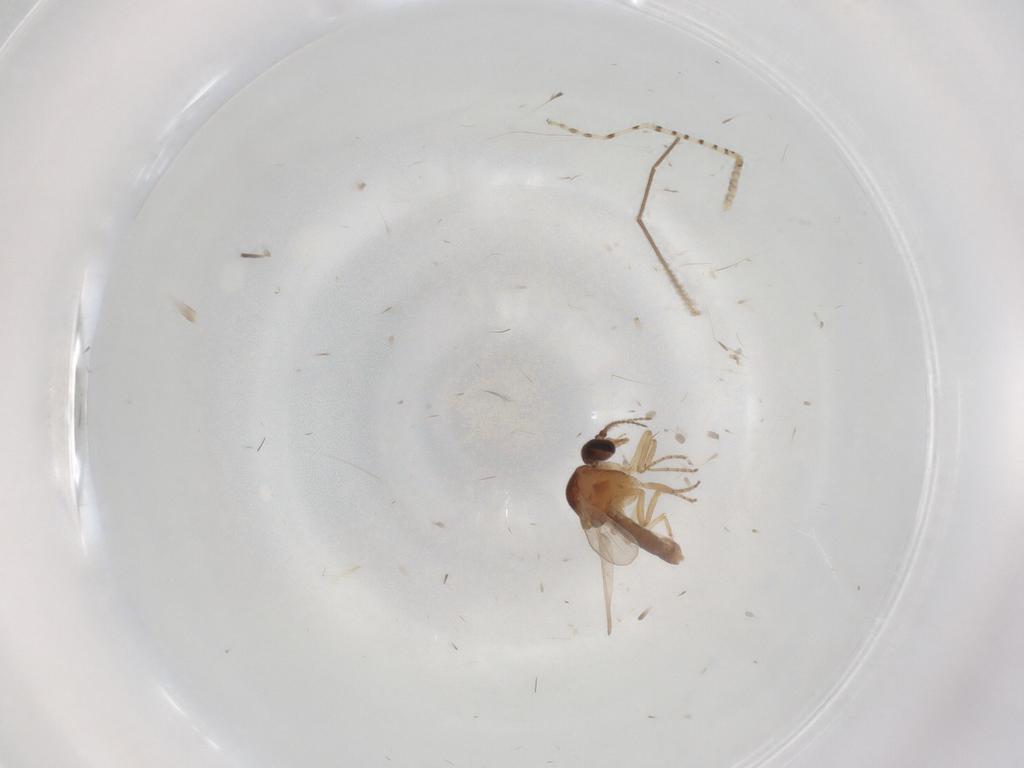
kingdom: Animalia
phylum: Arthropoda
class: Insecta
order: Diptera
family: Ceratopogonidae
